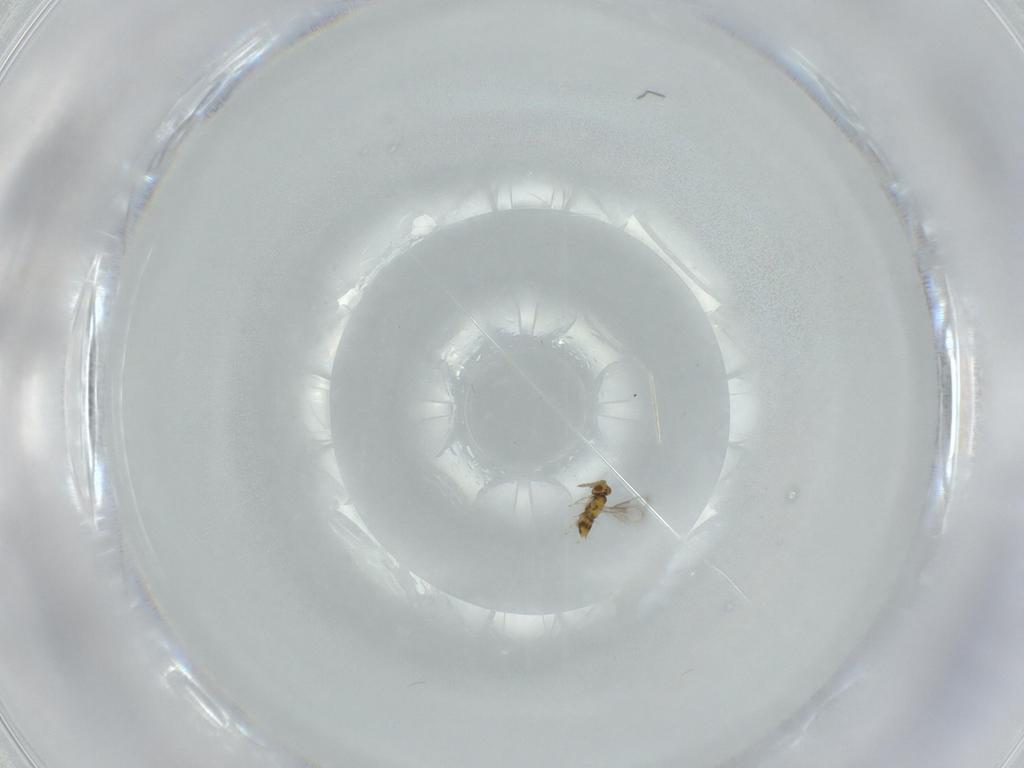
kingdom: Animalia
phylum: Arthropoda
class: Insecta
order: Hymenoptera
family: Aphelinidae
